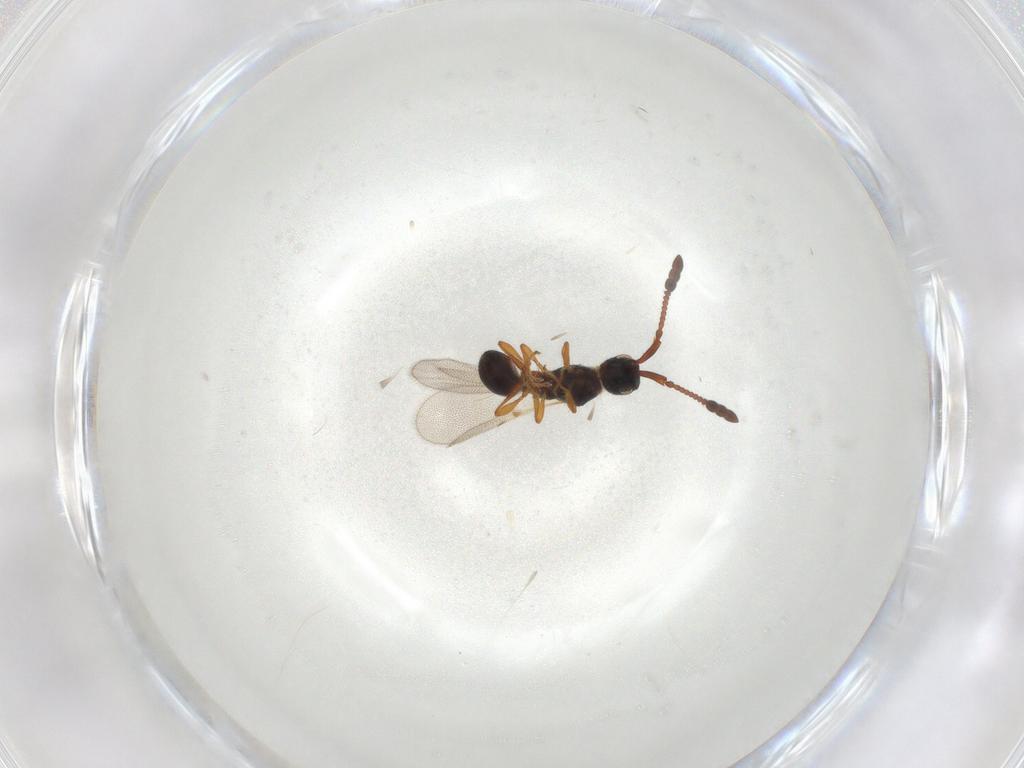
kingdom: Animalia
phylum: Arthropoda
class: Insecta
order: Hymenoptera
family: Diapriidae
